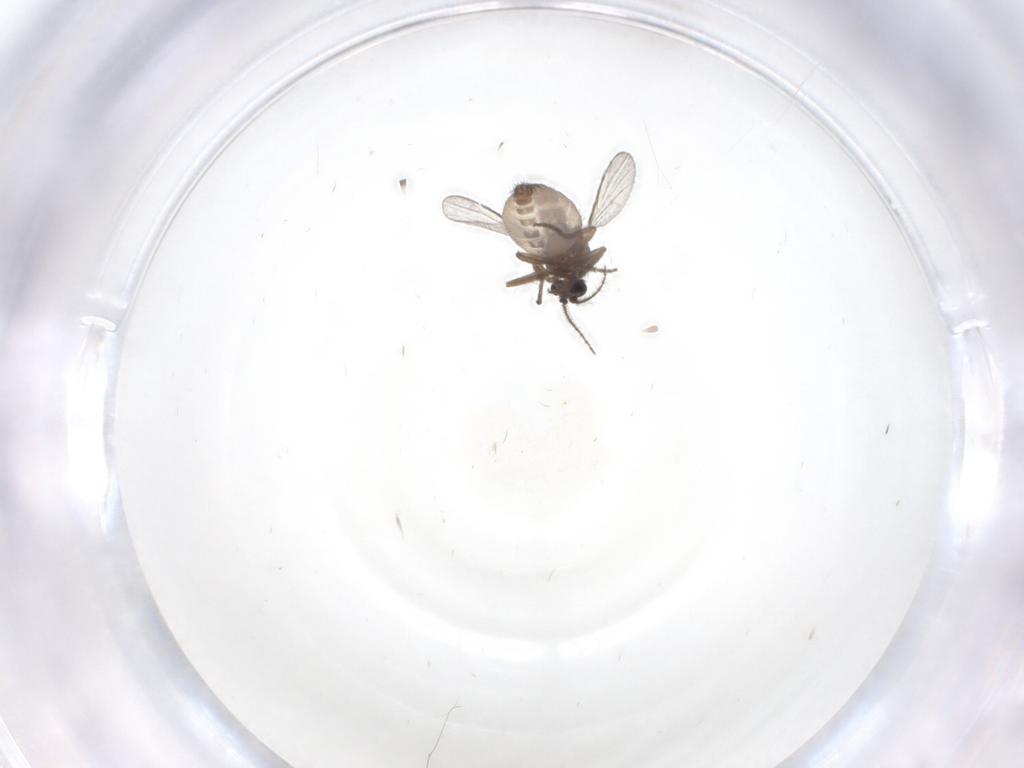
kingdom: Animalia
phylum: Arthropoda
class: Insecta
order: Diptera
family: Ceratopogonidae
